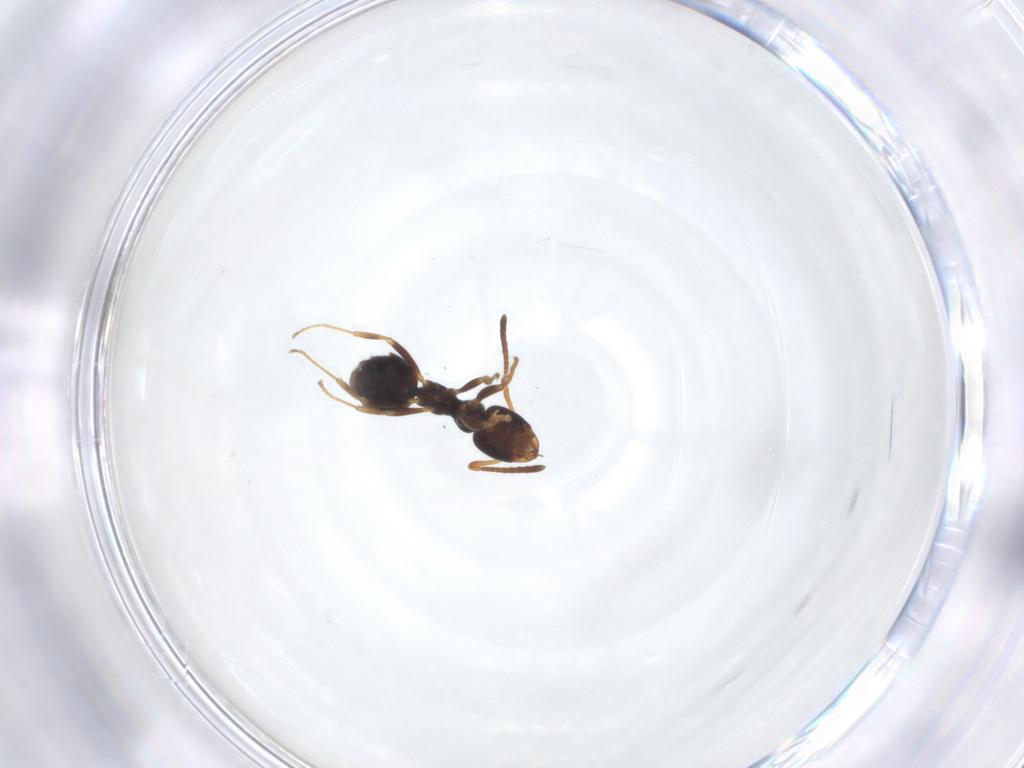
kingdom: Animalia
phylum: Arthropoda
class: Insecta
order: Hymenoptera
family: Formicidae
